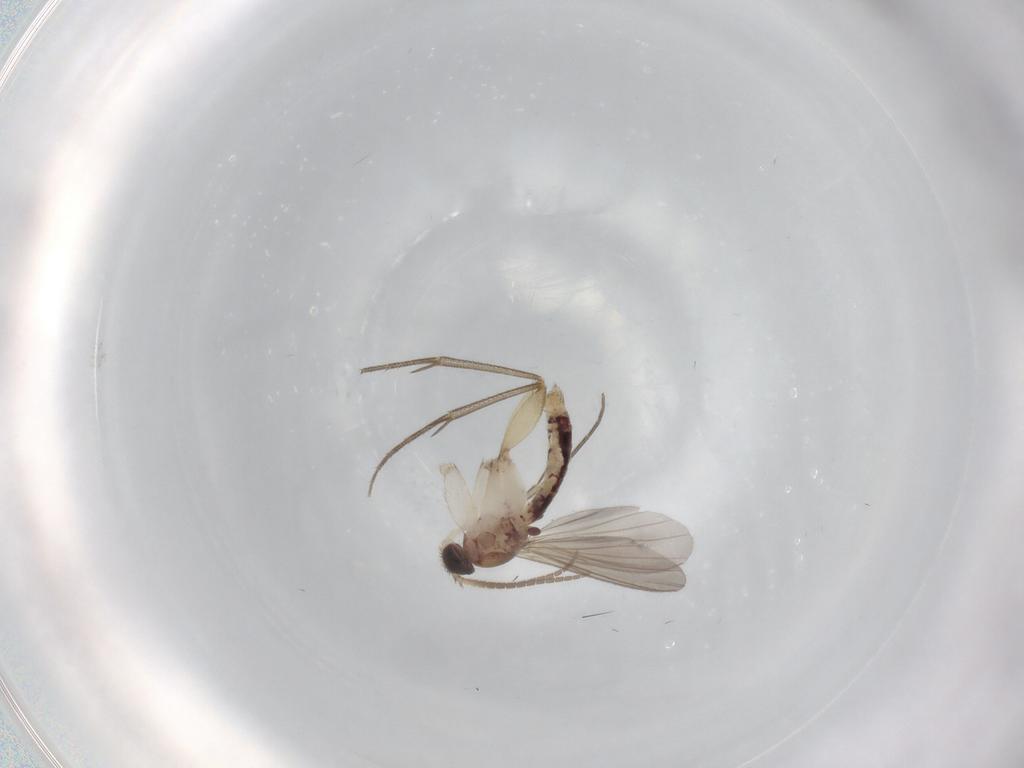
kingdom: Animalia
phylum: Arthropoda
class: Insecta
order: Diptera
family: Mycetophilidae
